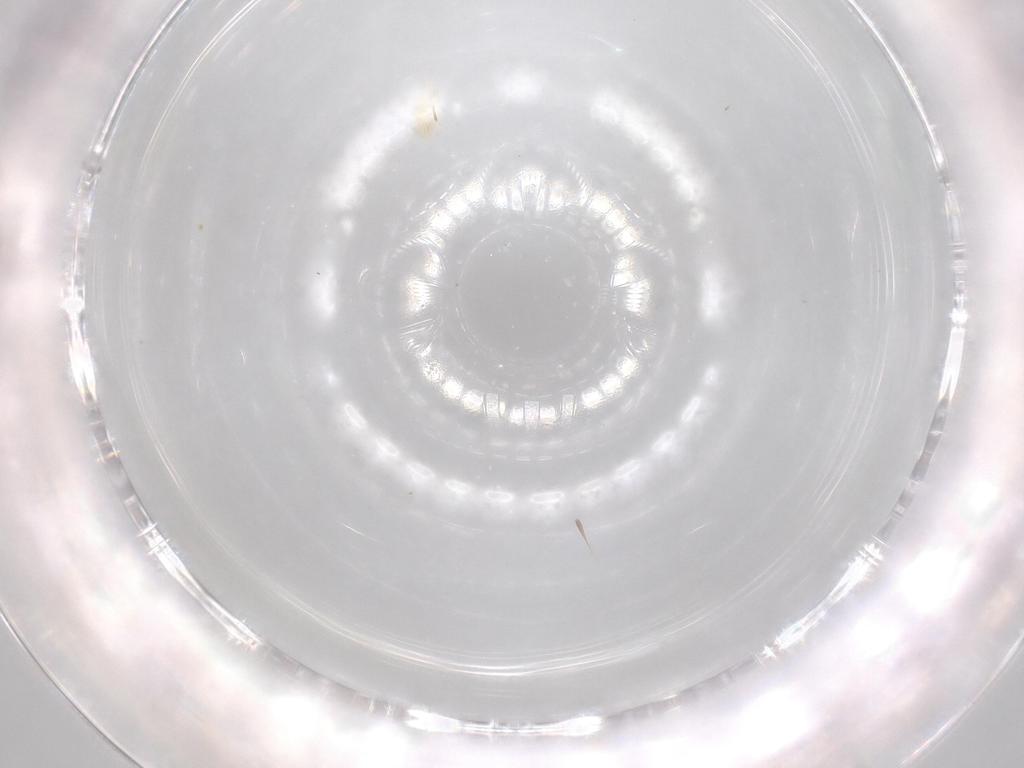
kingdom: Animalia
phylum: Arthropoda
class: Arachnida
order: Trombidiformes
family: Eupodidae
